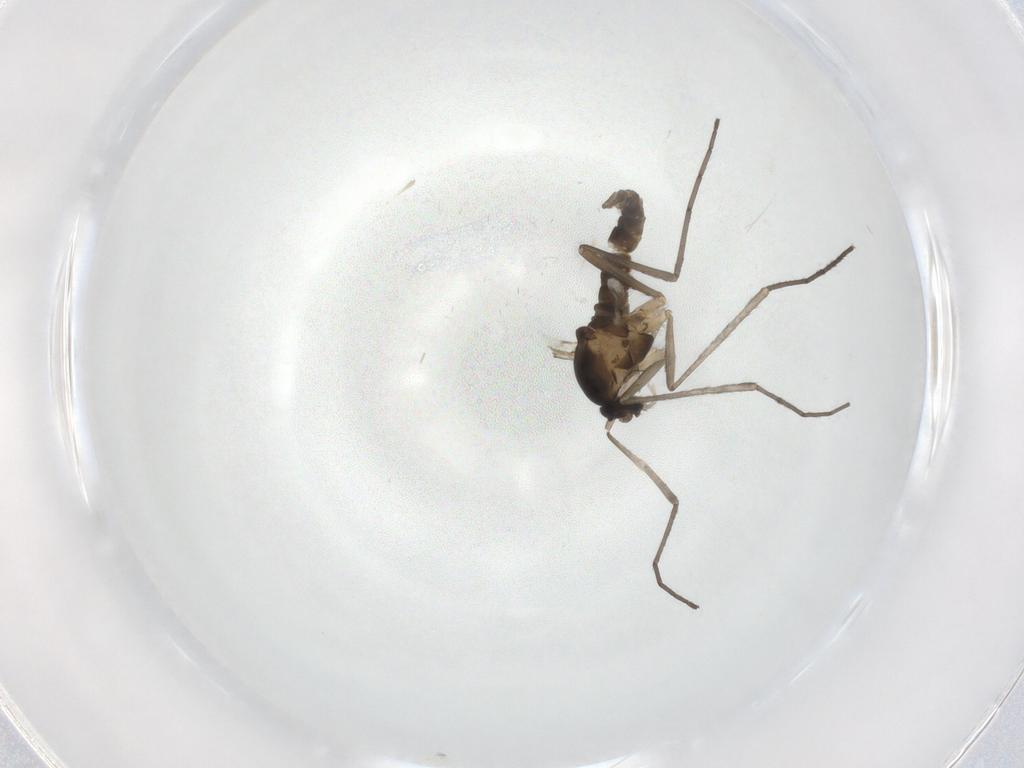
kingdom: Animalia
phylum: Arthropoda
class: Insecta
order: Diptera
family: Cecidomyiidae
